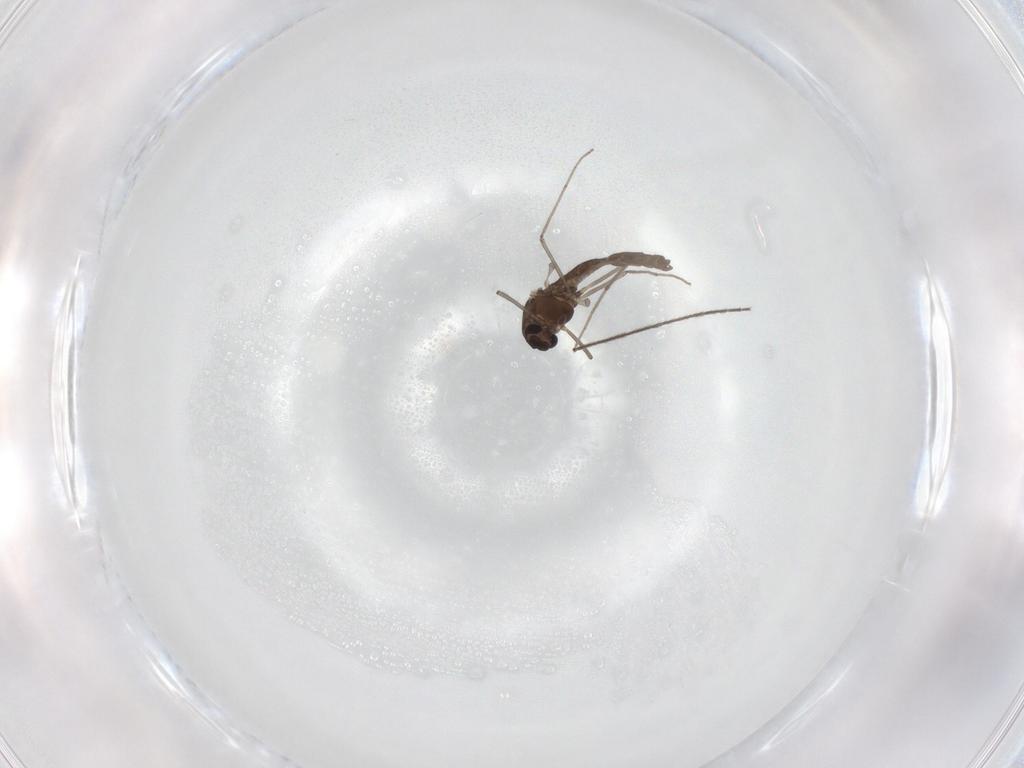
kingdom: Animalia
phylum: Arthropoda
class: Insecta
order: Diptera
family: Chironomidae
